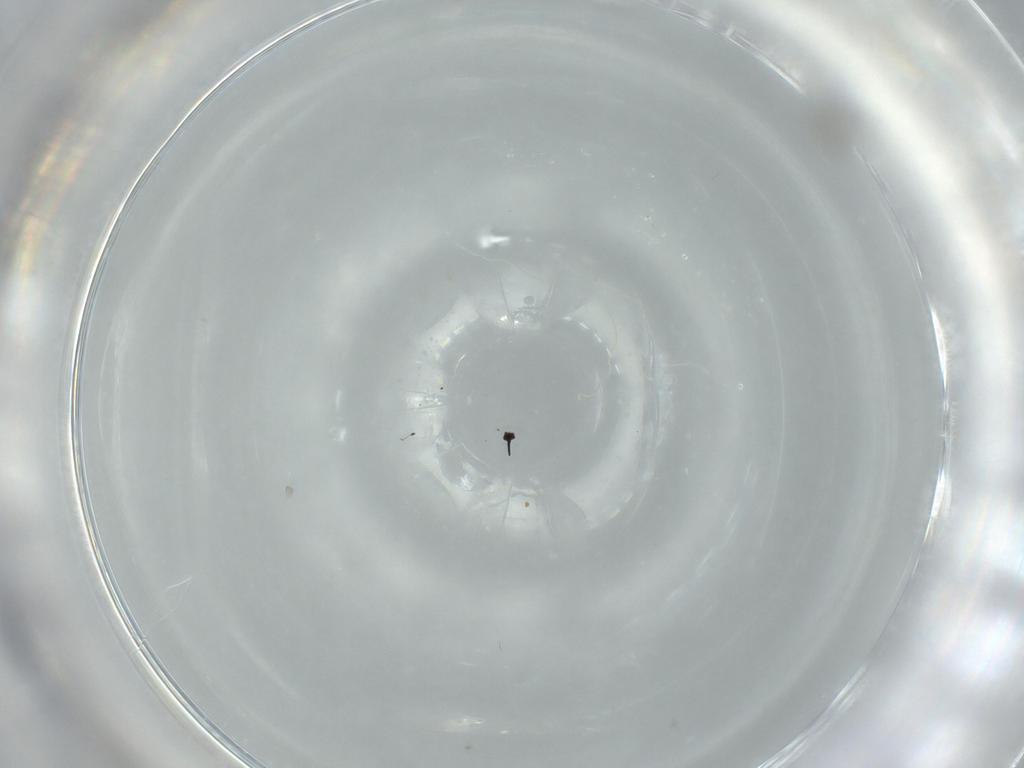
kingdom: Animalia
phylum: Arthropoda
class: Insecta
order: Diptera
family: Cecidomyiidae
